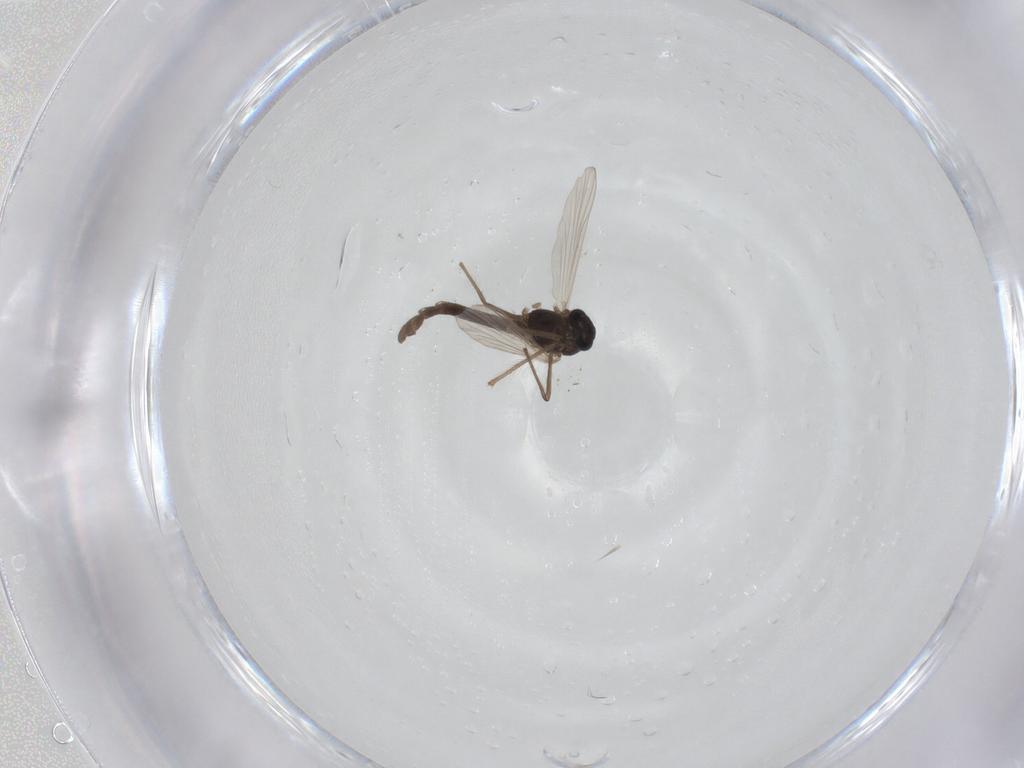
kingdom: Animalia
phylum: Arthropoda
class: Insecta
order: Diptera
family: Chironomidae
